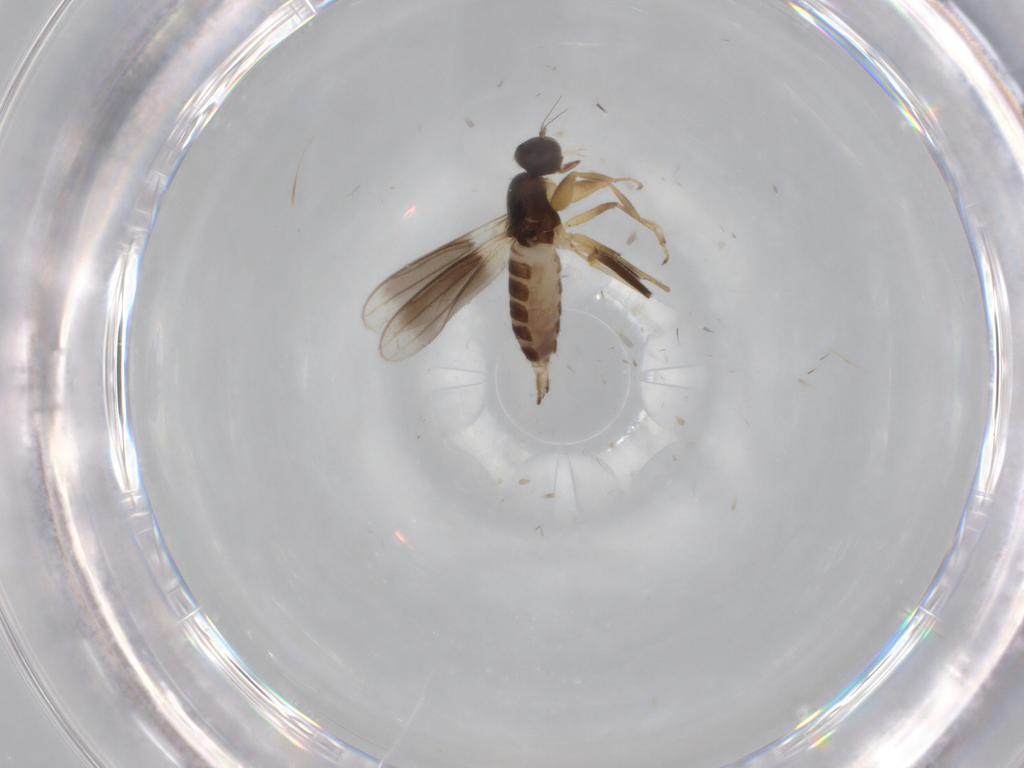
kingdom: Animalia
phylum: Arthropoda
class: Insecta
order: Diptera
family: Hybotidae
